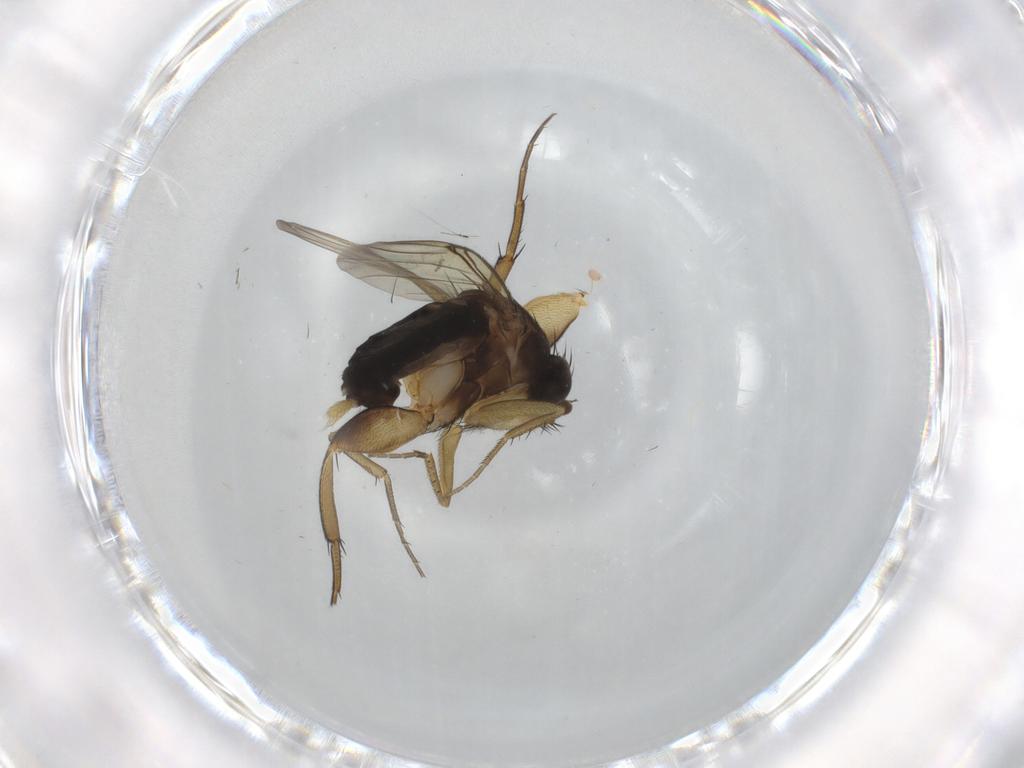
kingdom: Animalia
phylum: Arthropoda
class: Insecta
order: Diptera
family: Phoridae
